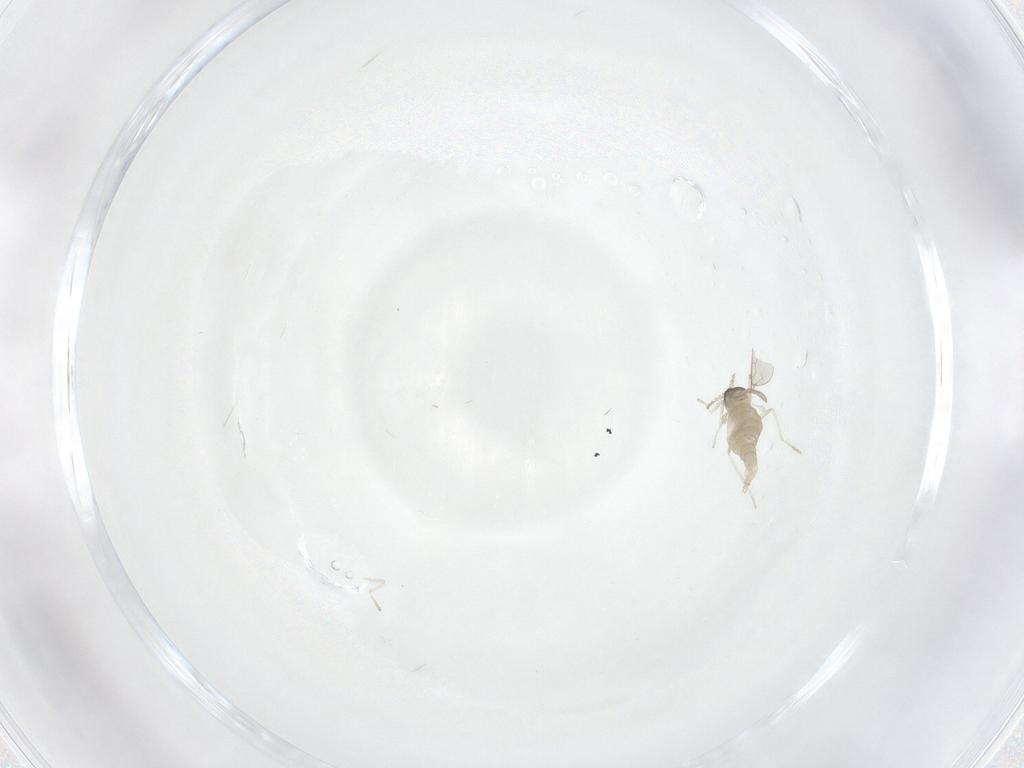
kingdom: Animalia
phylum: Arthropoda
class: Insecta
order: Diptera
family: Cecidomyiidae
